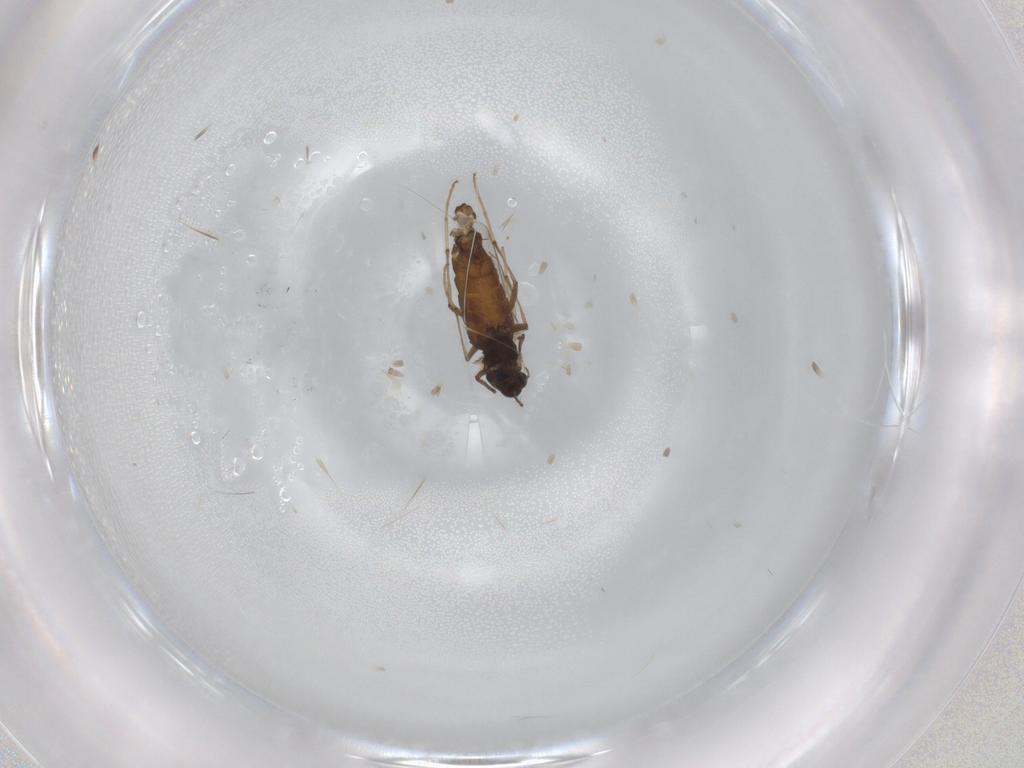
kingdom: Animalia
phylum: Arthropoda
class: Insecta
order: Diptera
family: Chironomidae
